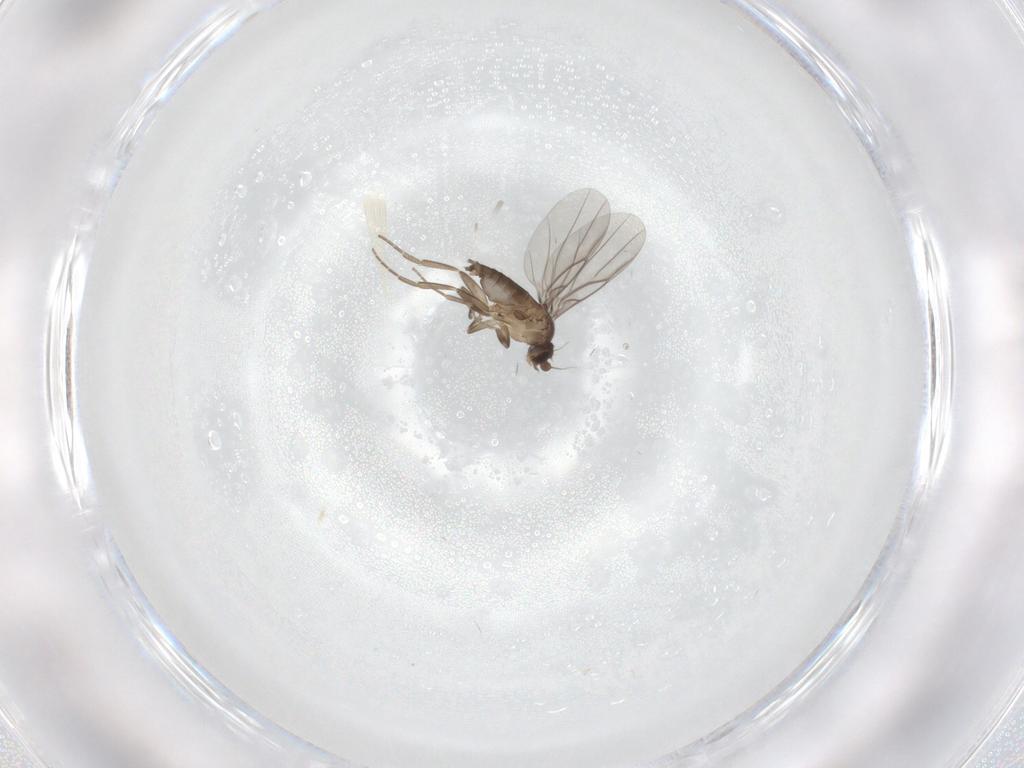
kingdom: Animalia
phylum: Arthropoda
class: Insecta
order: Diptera
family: Phoridae
